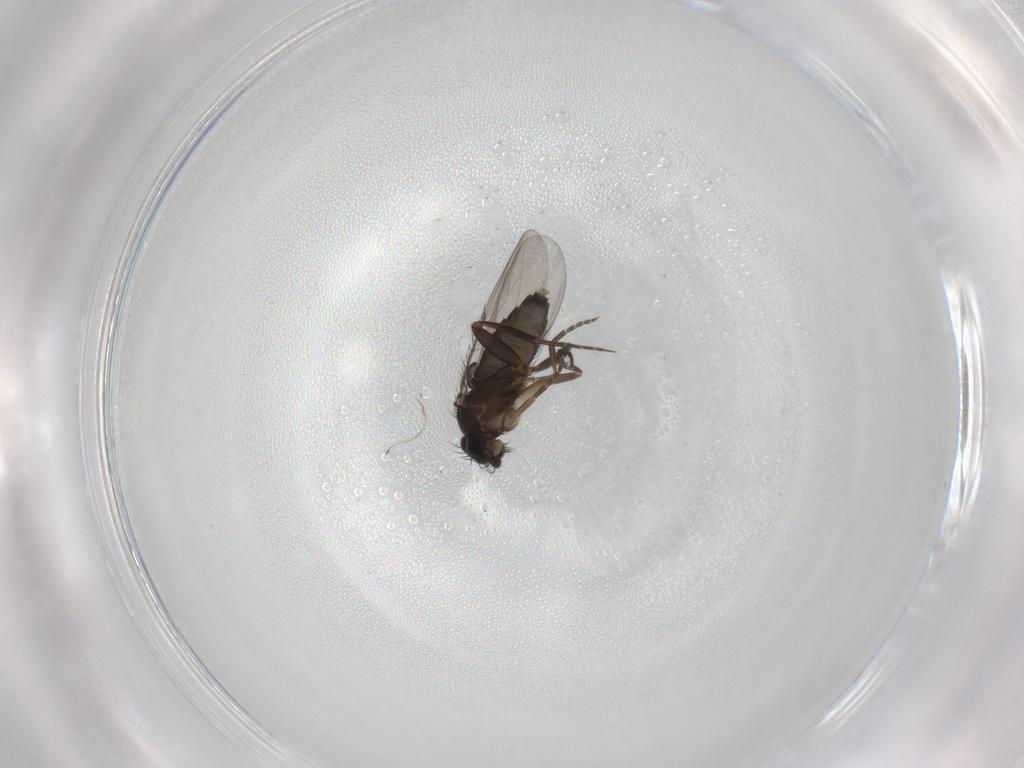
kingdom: Animalia
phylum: Arthropoda
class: Insecta
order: Diptera
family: Phoridae
